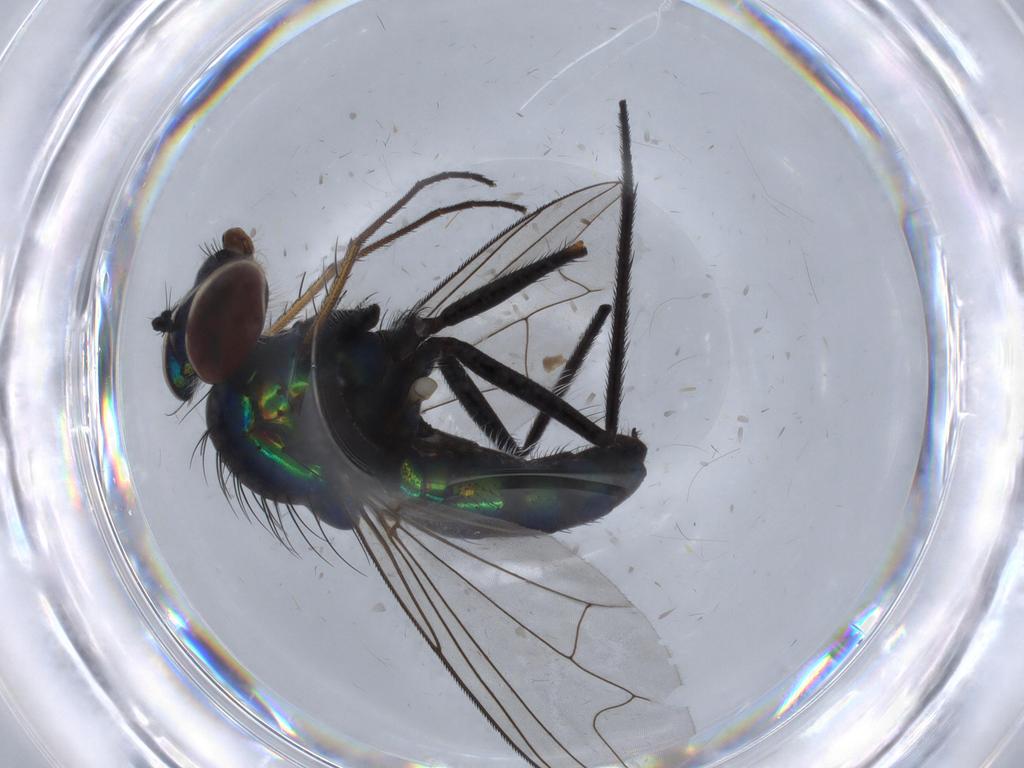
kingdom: Animalia
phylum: Arthropoda
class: Insecta
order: Diptera
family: Dolichopodidae
